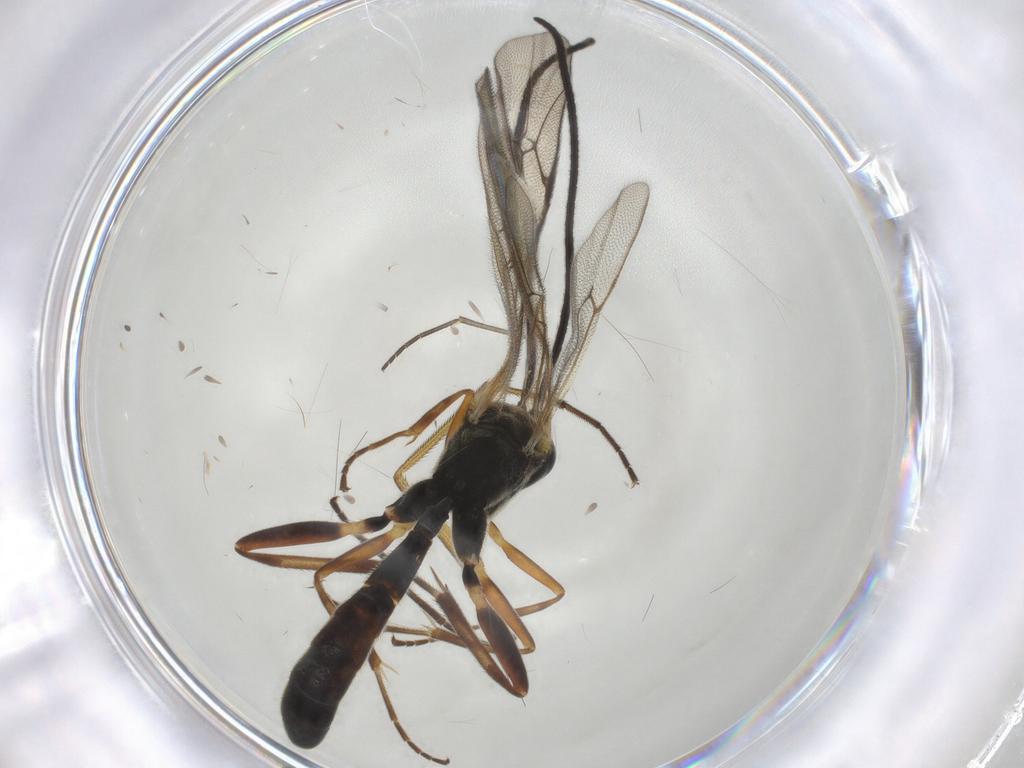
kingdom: Animalia
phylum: Arthropoda
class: Insecta
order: Hymenoptera
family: Ichneumonidae
